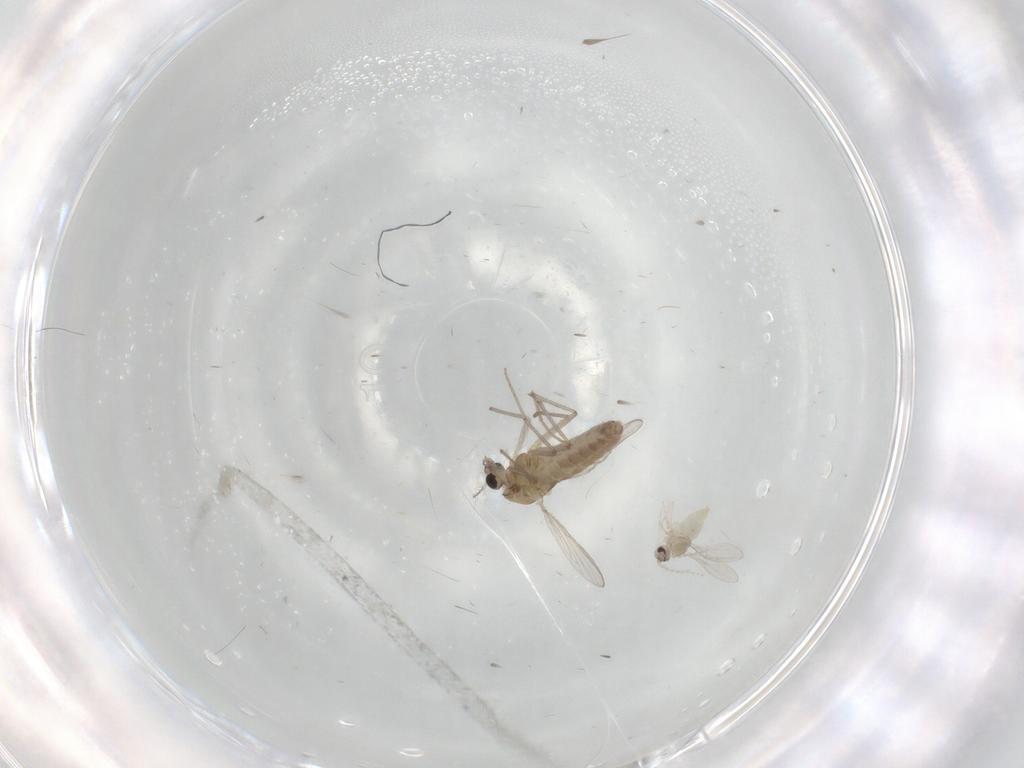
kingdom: Animalia
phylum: Arthropoda
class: Insecta
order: Diptera
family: Chironomidae
